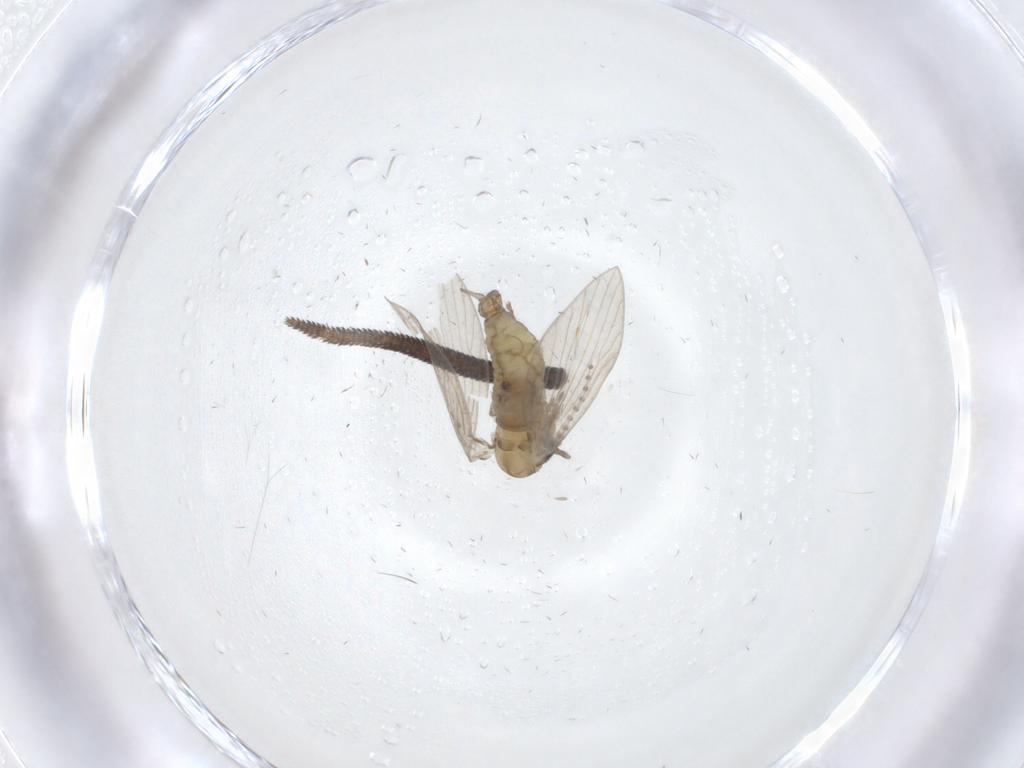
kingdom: Animalia
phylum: Arthropoda
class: Insecta
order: Diptera
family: Psychodidae
